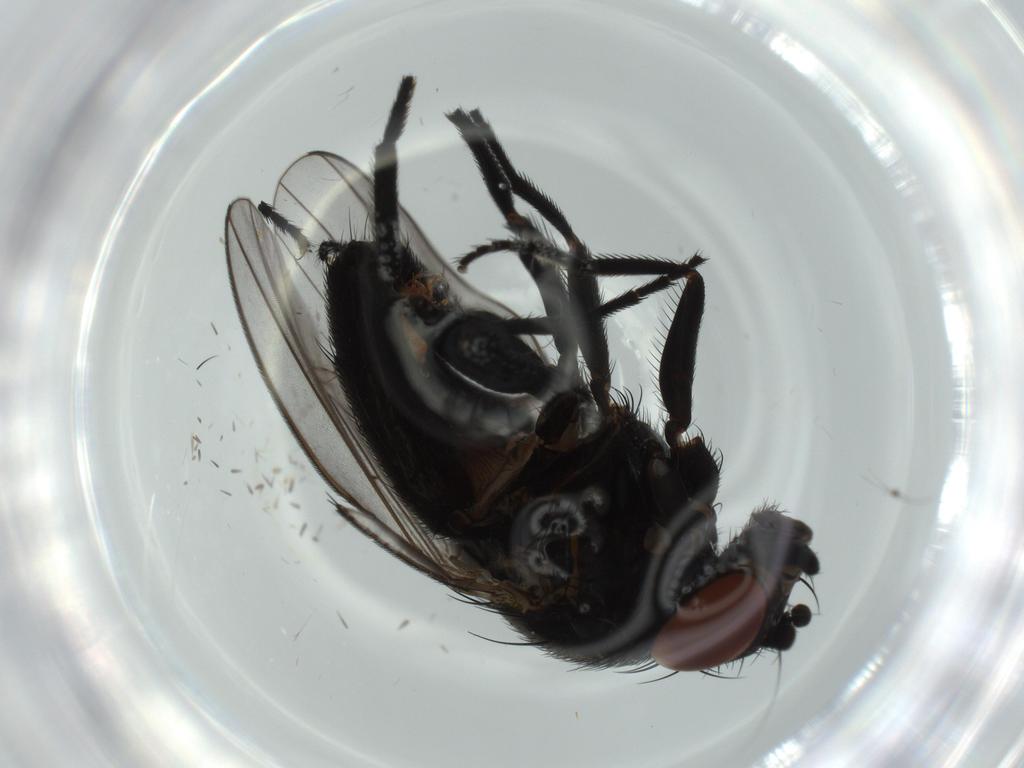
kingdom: Animalia
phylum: Arthropoda
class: Insecta
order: Diptera
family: Milichiidae
